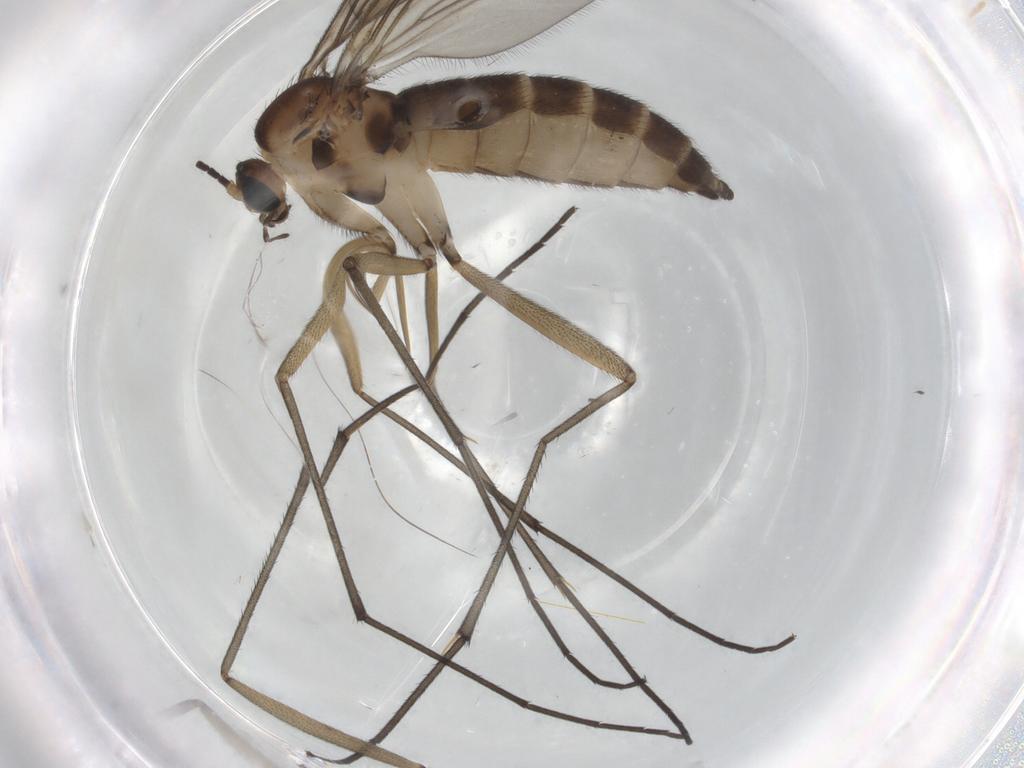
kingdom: Animalia
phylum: Arthropoda
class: Insecta
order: Diptera
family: Sciaridae
